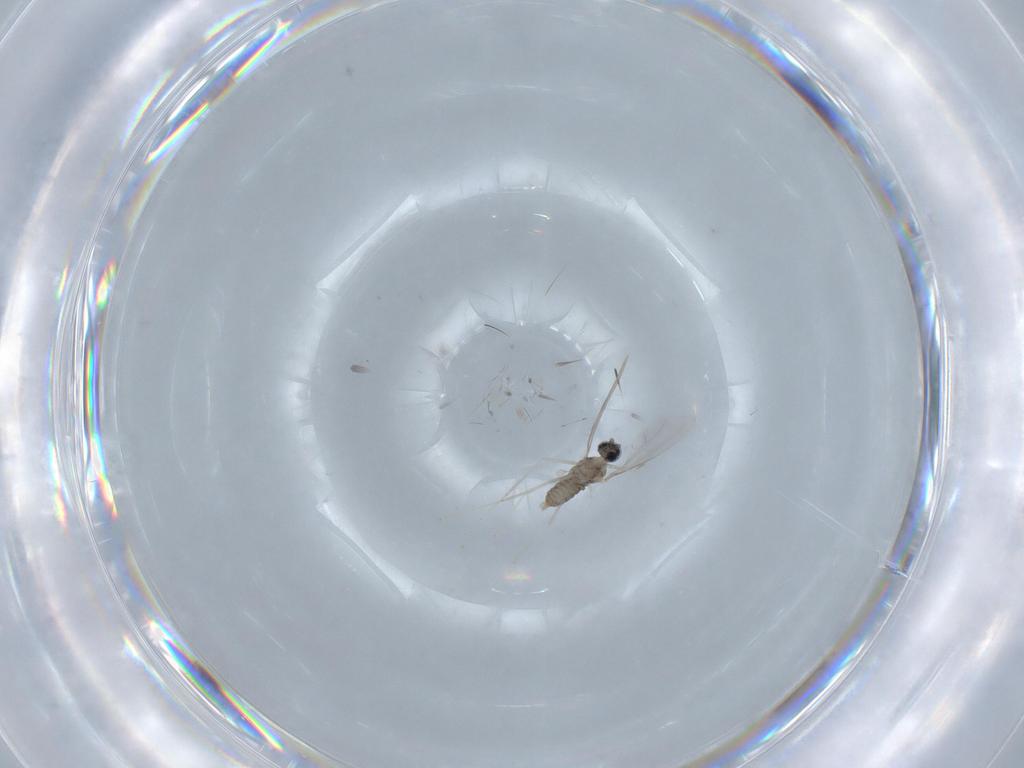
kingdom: Animalia
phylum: Arthropoda
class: Insecta
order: Diptera
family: Cecidomyiidae
